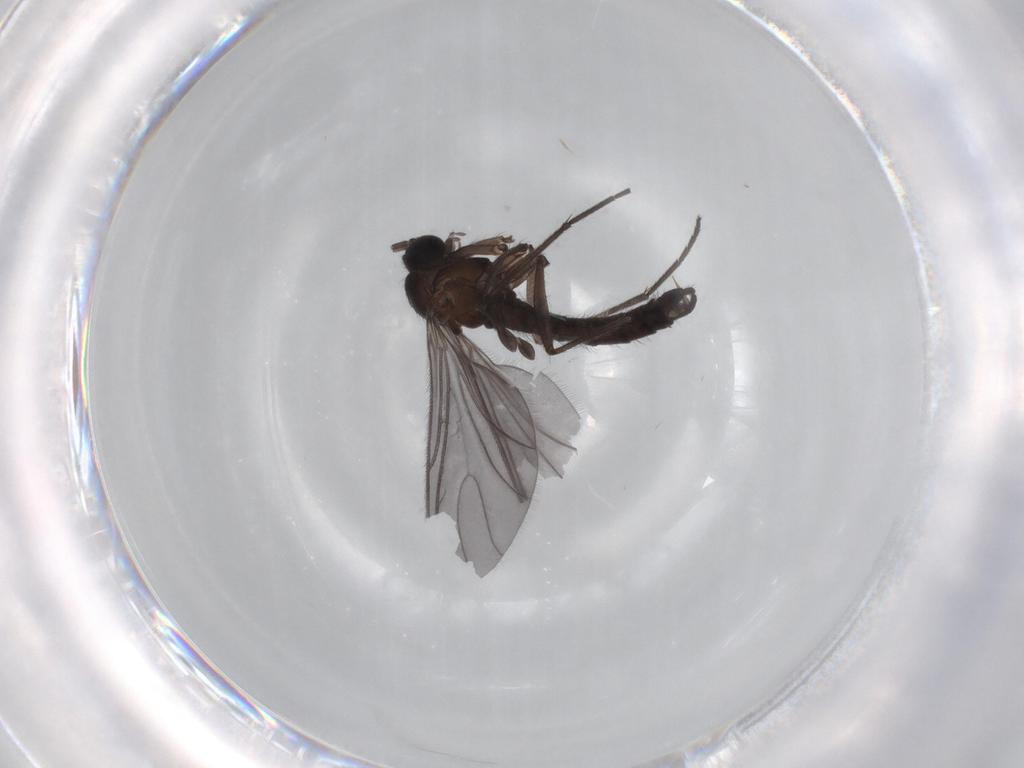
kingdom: Animalia
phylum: Arthropoda
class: Insecta
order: Diptera
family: Sciaridae
